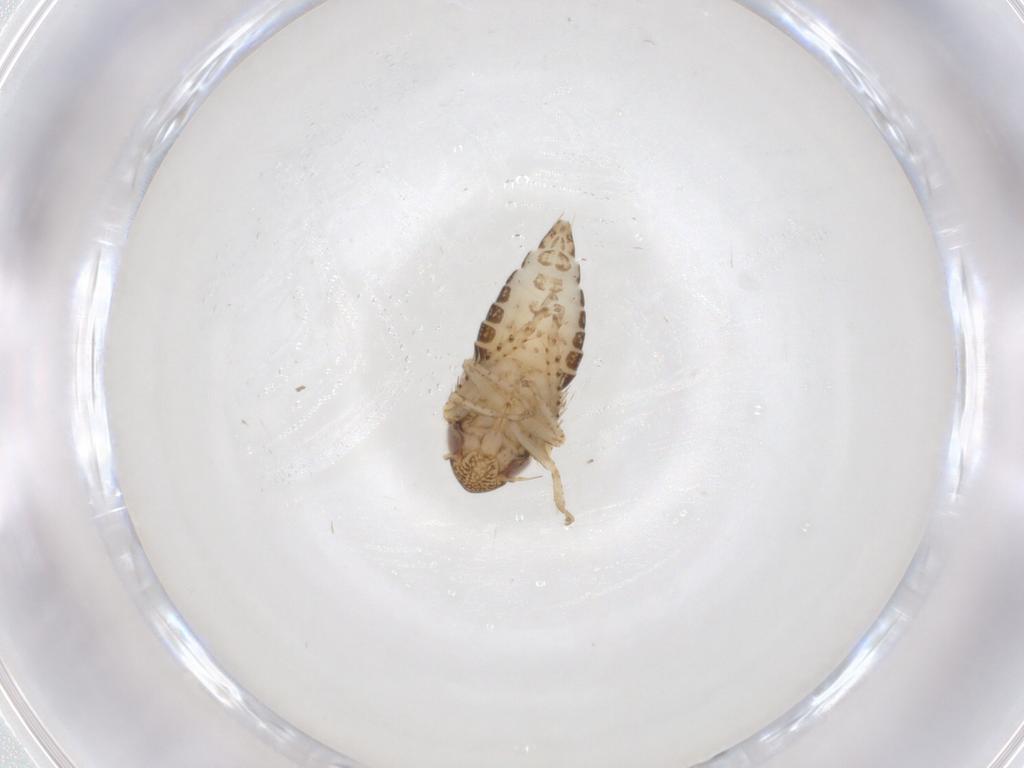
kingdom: Animalia
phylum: Arthropoda
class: Insecta
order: Hemiptera
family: Cicadellidae
